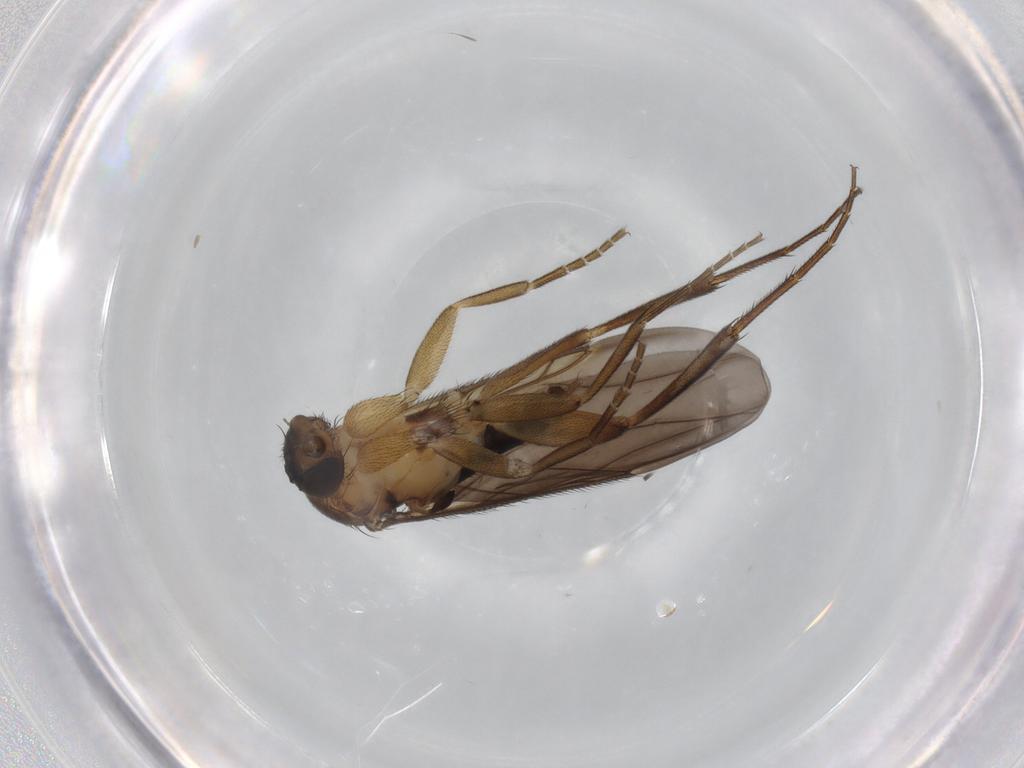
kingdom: Animalia
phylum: Arthropoda
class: Insecta
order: Diptera
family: Phoridae
